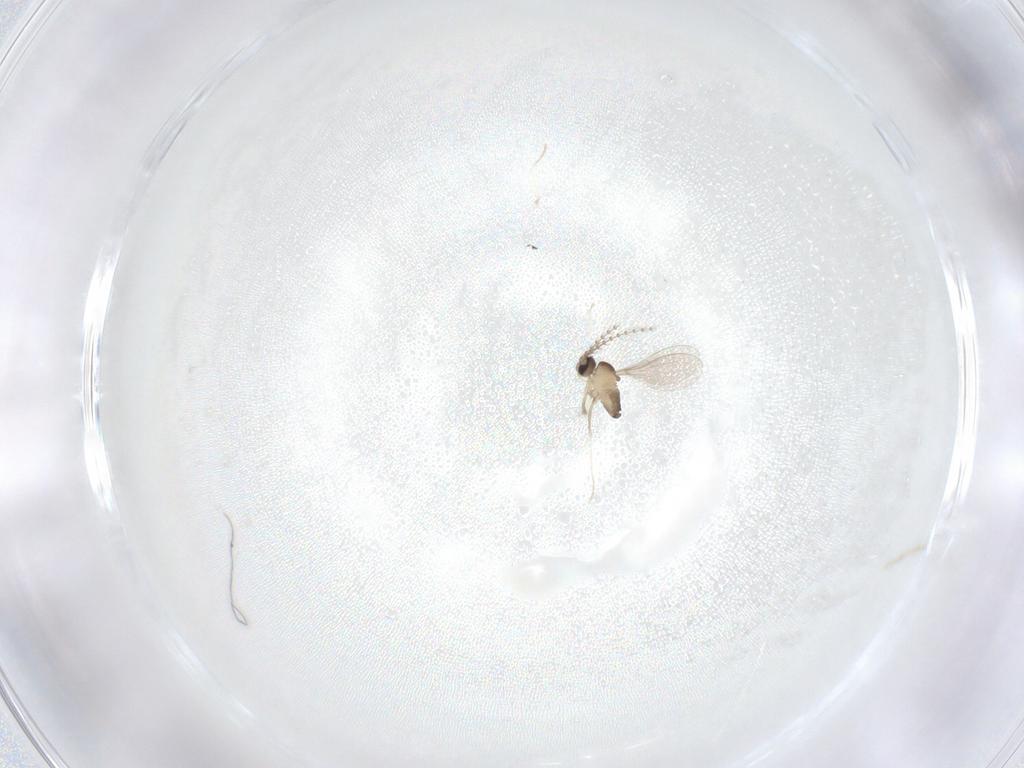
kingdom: Animalia
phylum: Arthropoda
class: Insecta
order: Diptera
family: Cecidomyiidae
